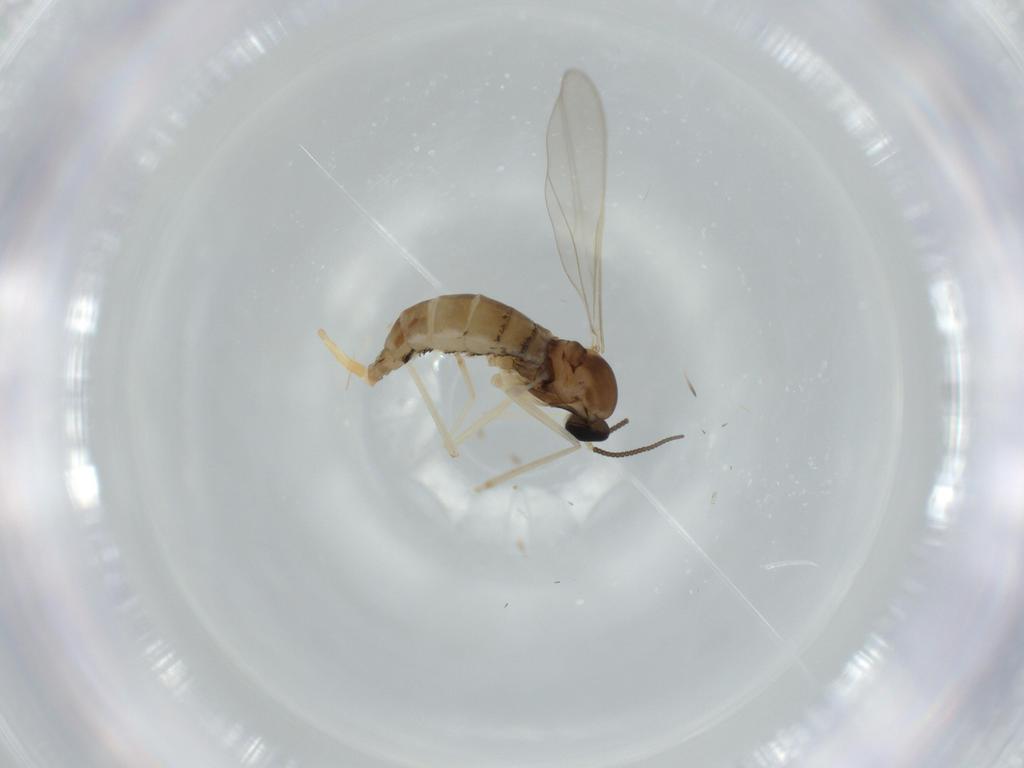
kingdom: Animalia
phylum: Arthropoda
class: Insecta
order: Diptera
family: Cecidomyiidae
